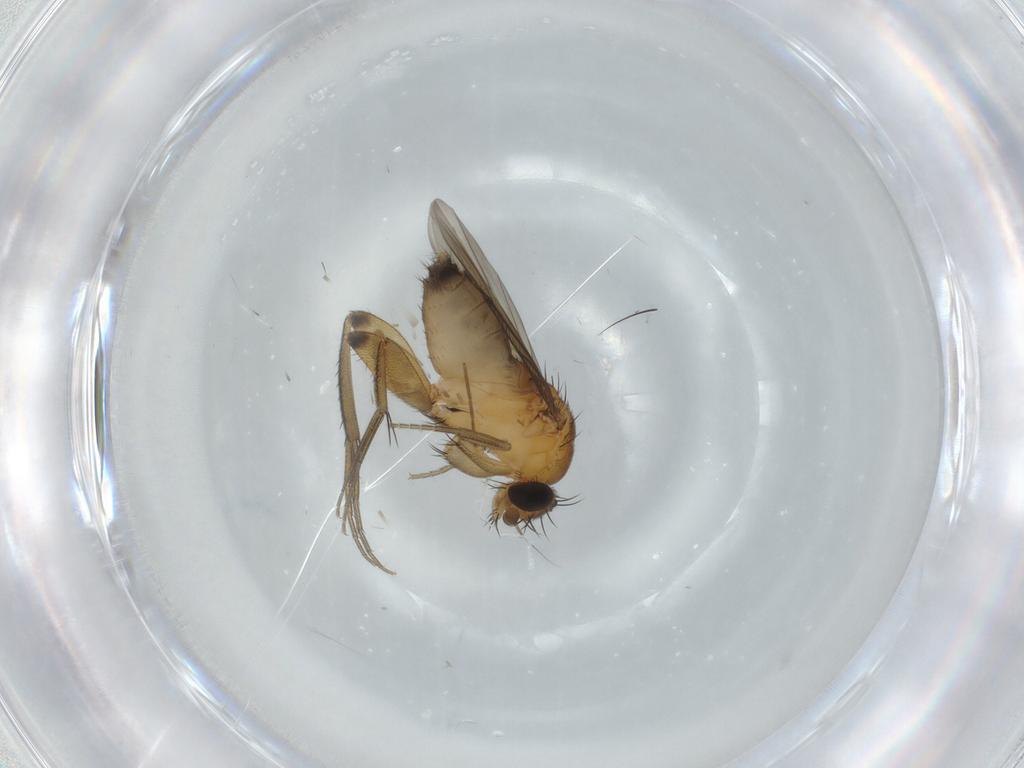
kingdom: Animalia
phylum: Arthropoda
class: Insecta
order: Diptera
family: Phoridae
